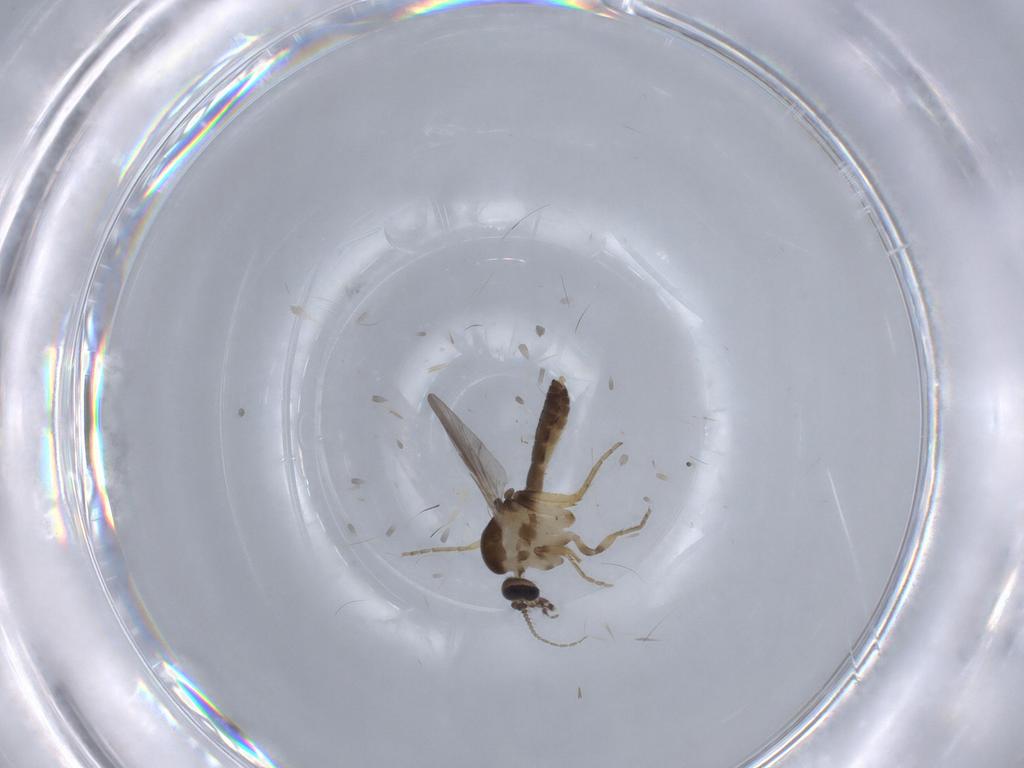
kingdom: Animalia
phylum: Arthropoda
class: Insecta
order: Diptera
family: Ceratopogonidae
